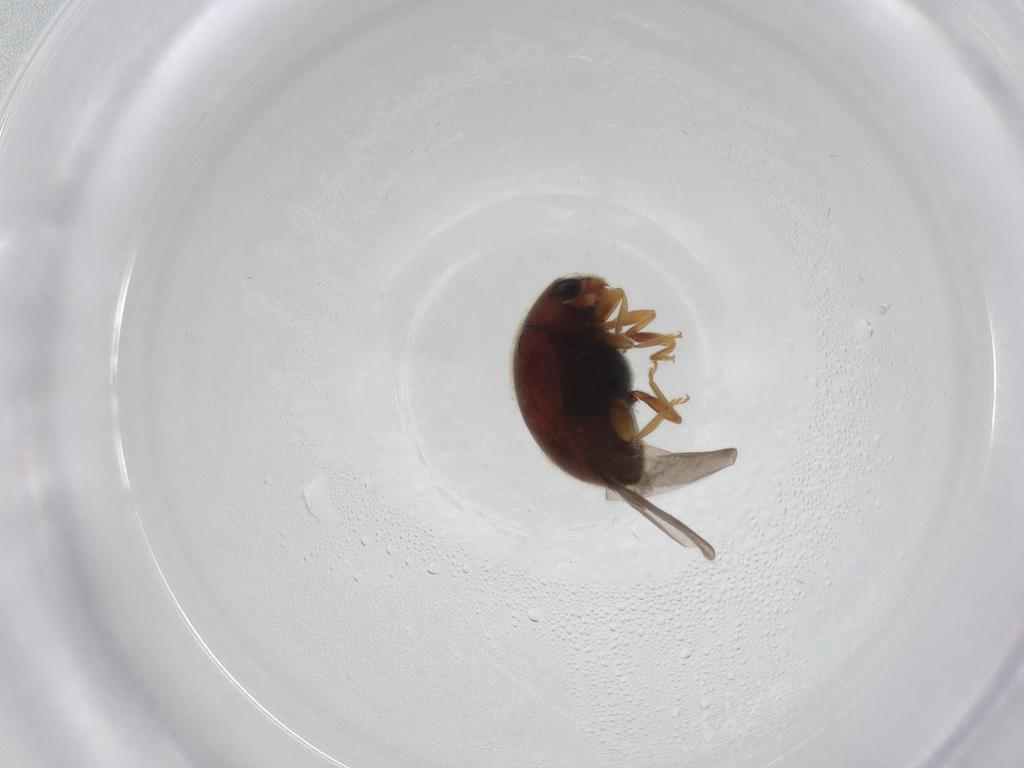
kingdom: Animalia
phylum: Arthropoda
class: Insecta
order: Coleoptera
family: Coccinellidae
